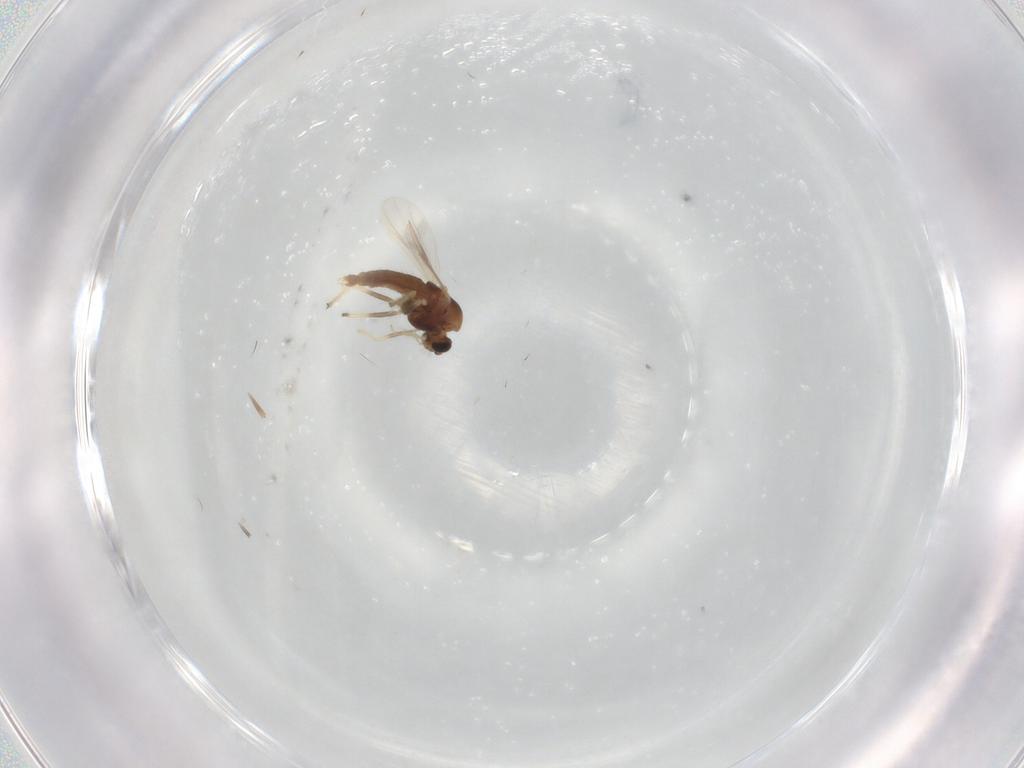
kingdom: Animalia
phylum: Arthropoda
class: Insecta
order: Diptera
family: Chironomidae
